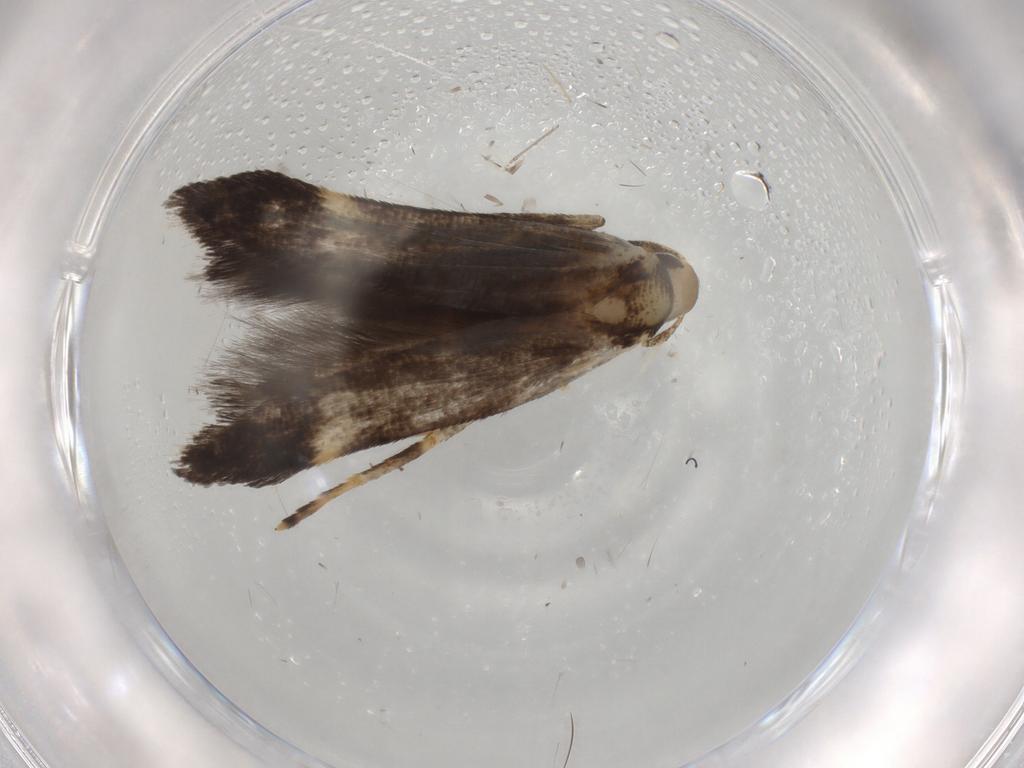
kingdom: Animalia
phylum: Arthropoda
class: Insecta
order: Lepidoptera
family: Cosmopterigidae
